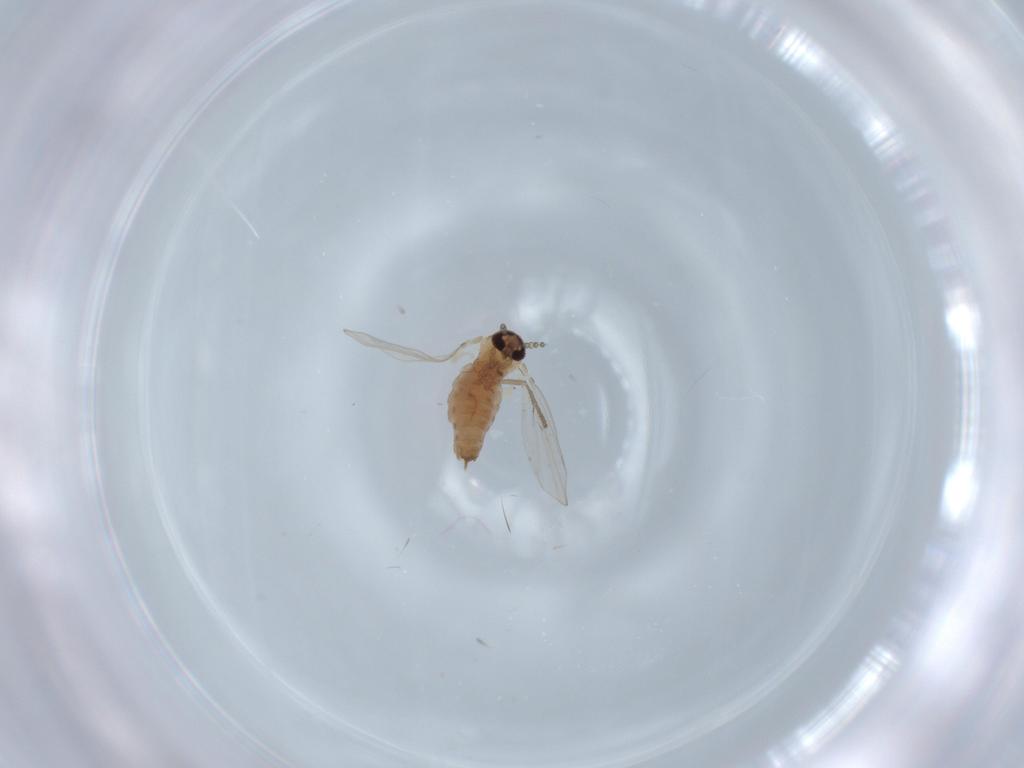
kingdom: Animalia
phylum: Arthropoda
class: Insecta
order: Diptera
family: Psychodidae
